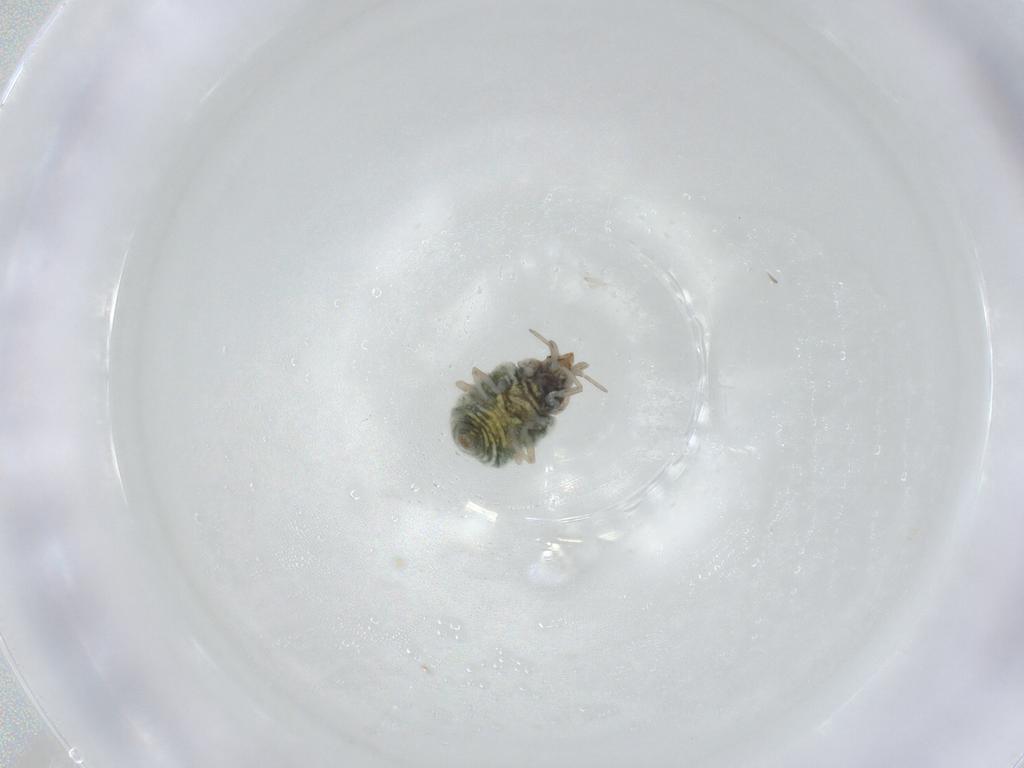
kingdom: Animalia
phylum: Arthropoda
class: Insecta
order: Neuroptera
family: Coniopterygidae
